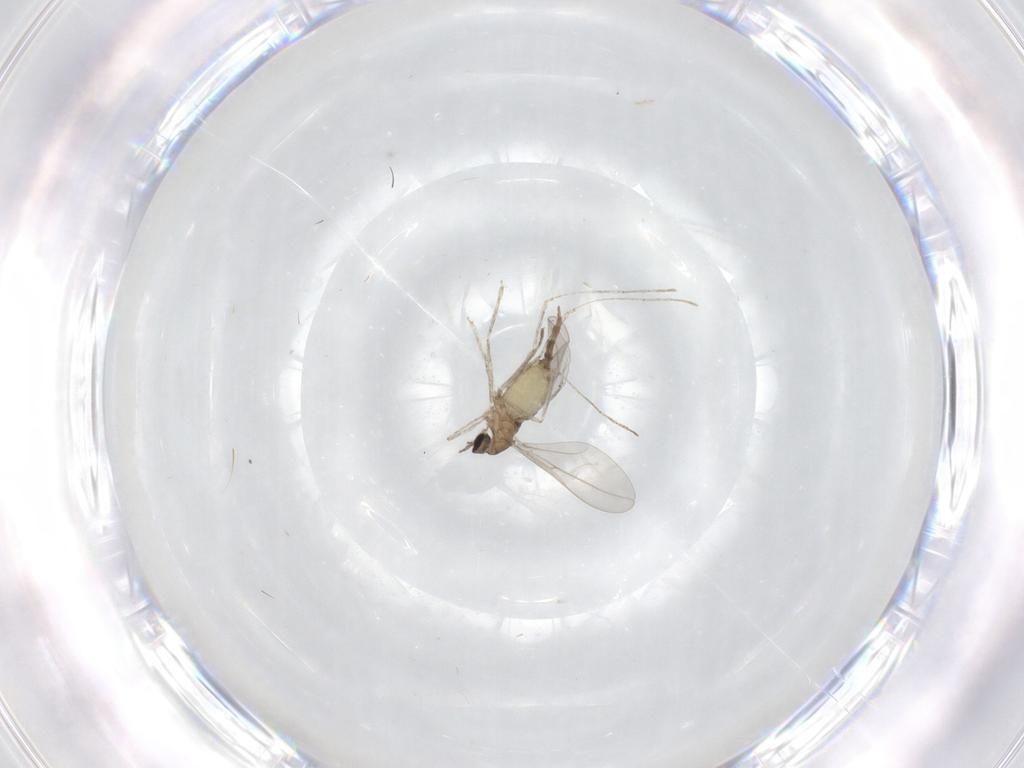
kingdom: Animalia
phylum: Arthropoda
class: Insecta
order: Diptera
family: Cecidomyiidae
